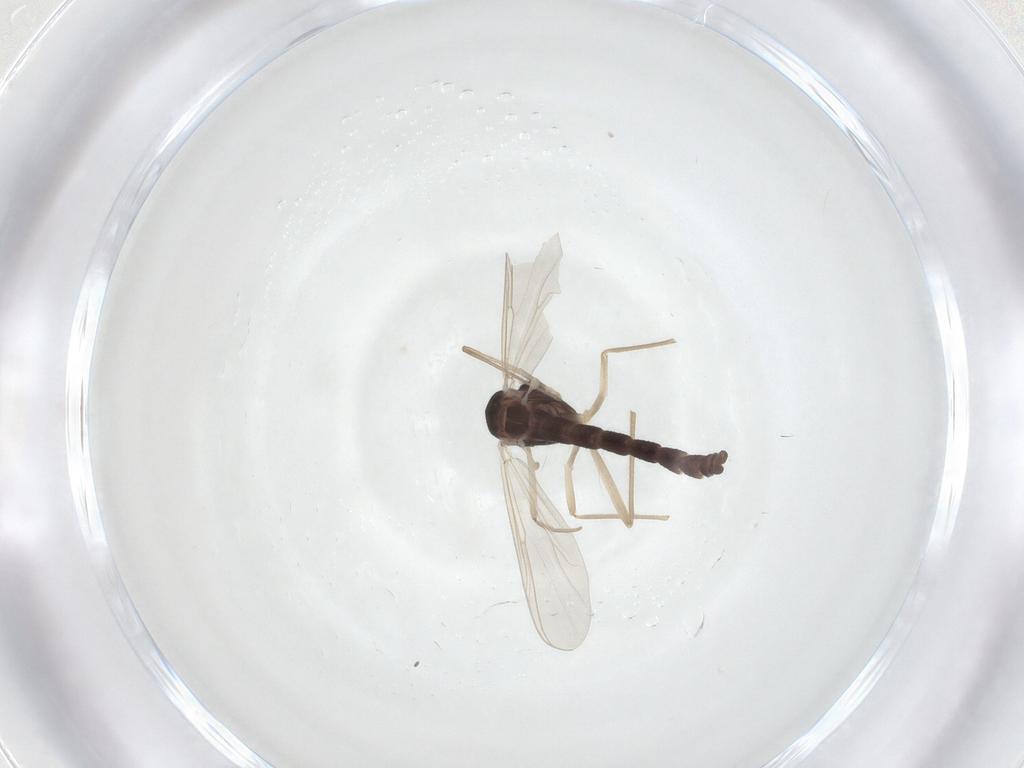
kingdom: Animalia
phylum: Arthropoda
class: Insecta
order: Diptera
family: Chironomidae
